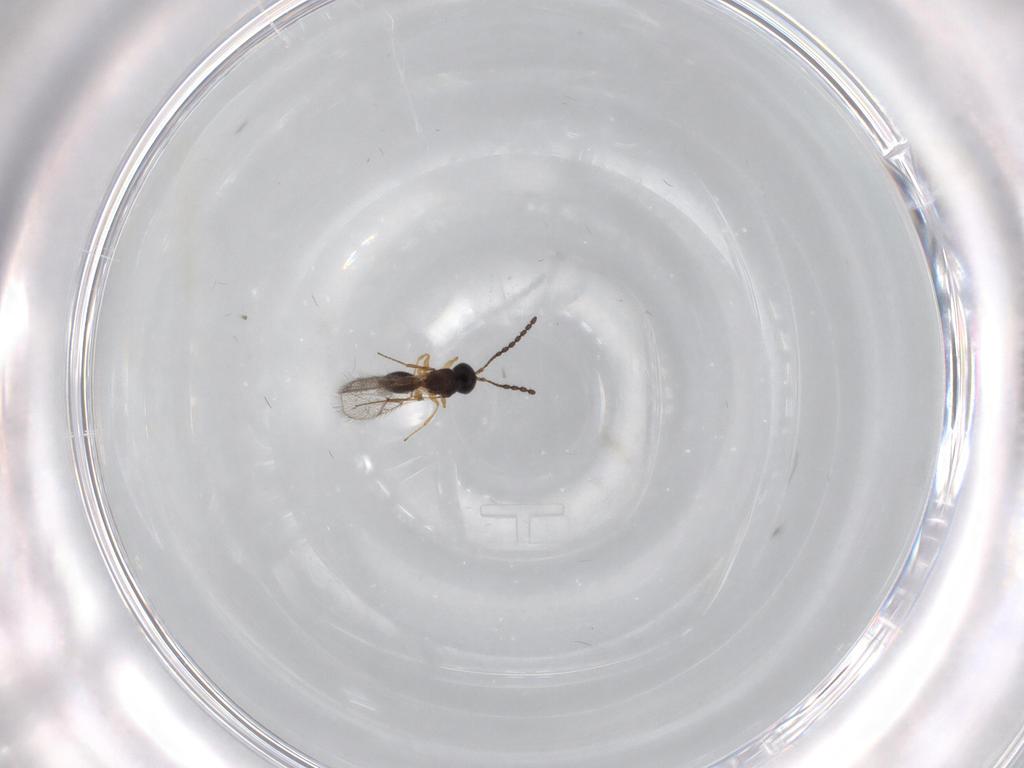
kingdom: Animalia
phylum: Arthropoda
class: Insecta
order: Hymenoptera
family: Figitidae
